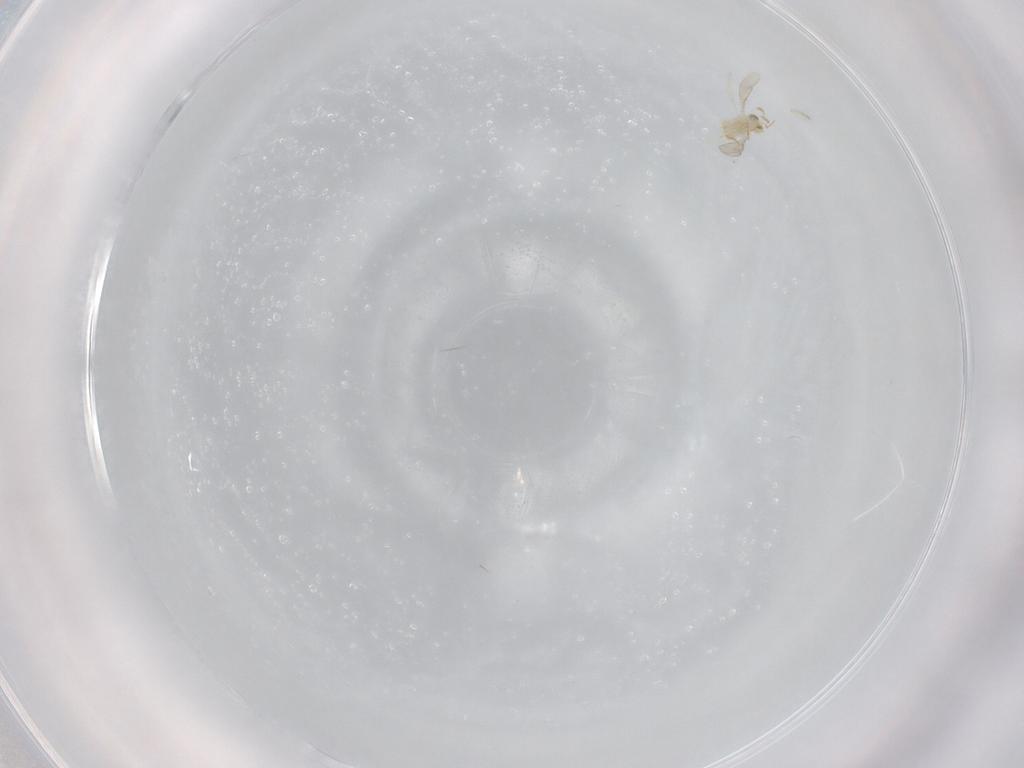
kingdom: Animalia
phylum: Arthropoda
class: Insecta
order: Hymenoptera
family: Aphelinidae
